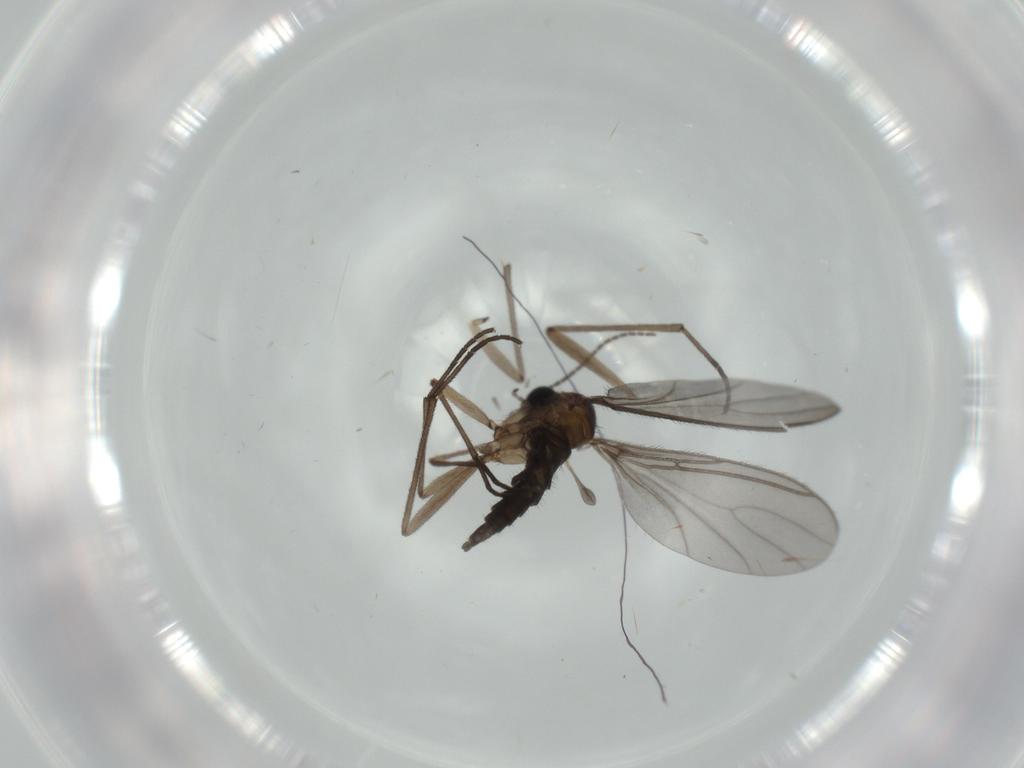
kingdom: Animalia
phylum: Arthropoda
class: Insecta
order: Diptera
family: Sciaridae
